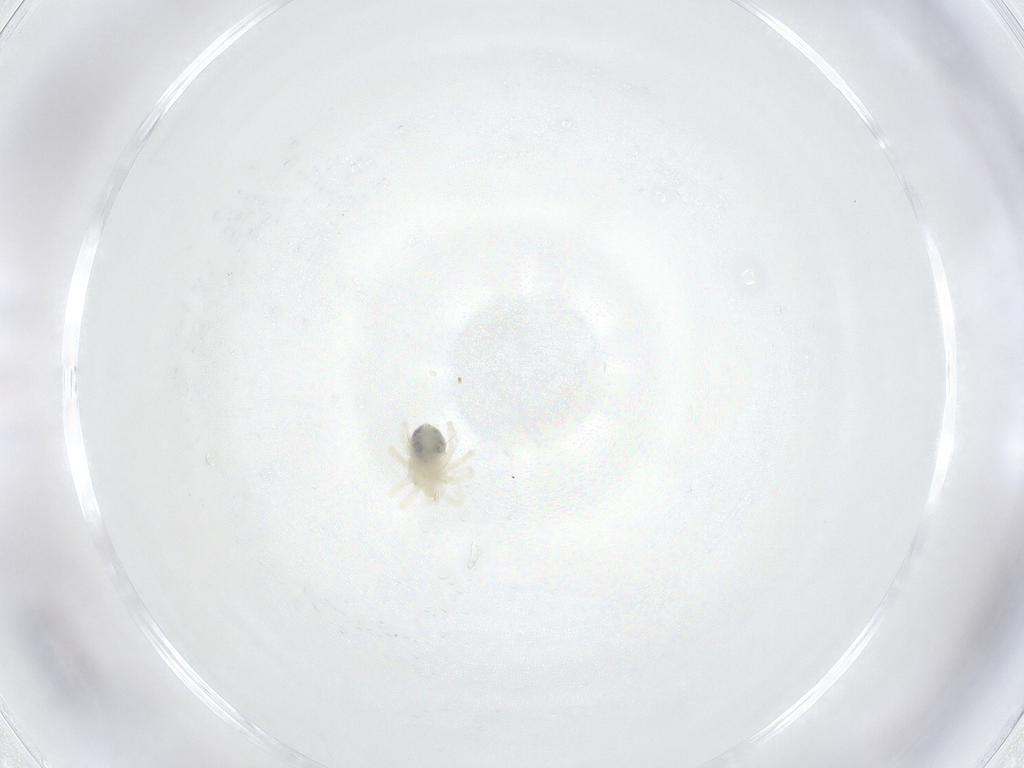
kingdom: Animalia
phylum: Arthropoda
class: Arachnida
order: Trombidiformes
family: Anystidae
